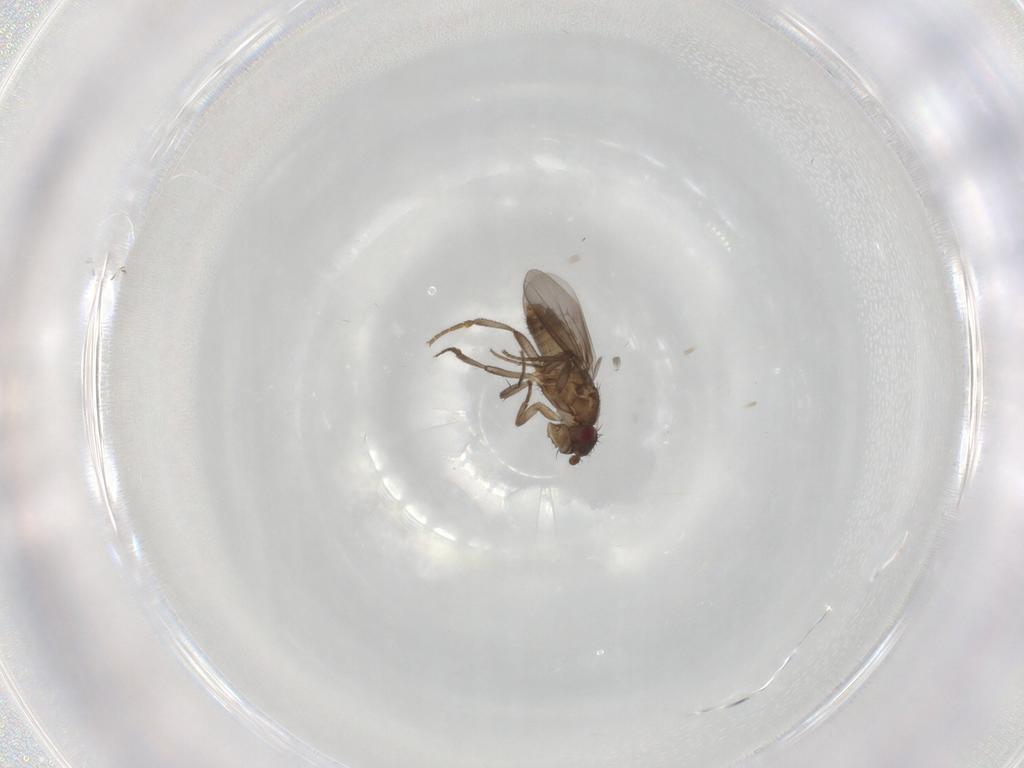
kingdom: Animalia
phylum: Arthropoda
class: Insecta
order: Diptera
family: Sphaeroceridae
